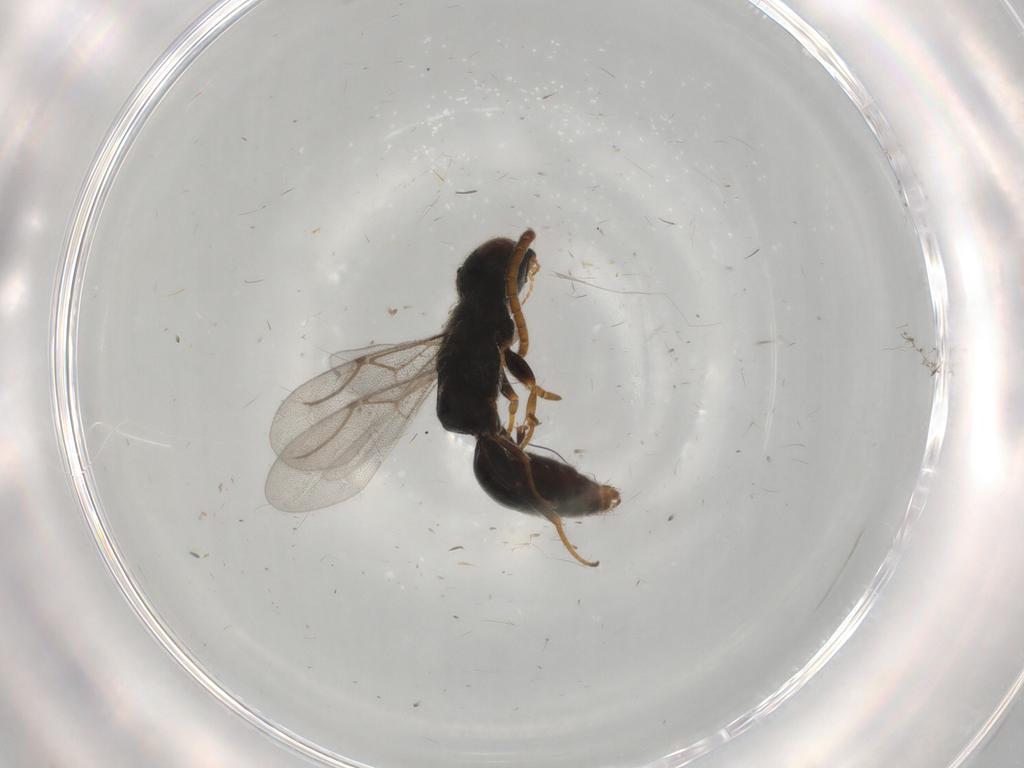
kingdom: Animalia
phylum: Arthropoda
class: Insecta
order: Hymenoptera
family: Bethylidae
